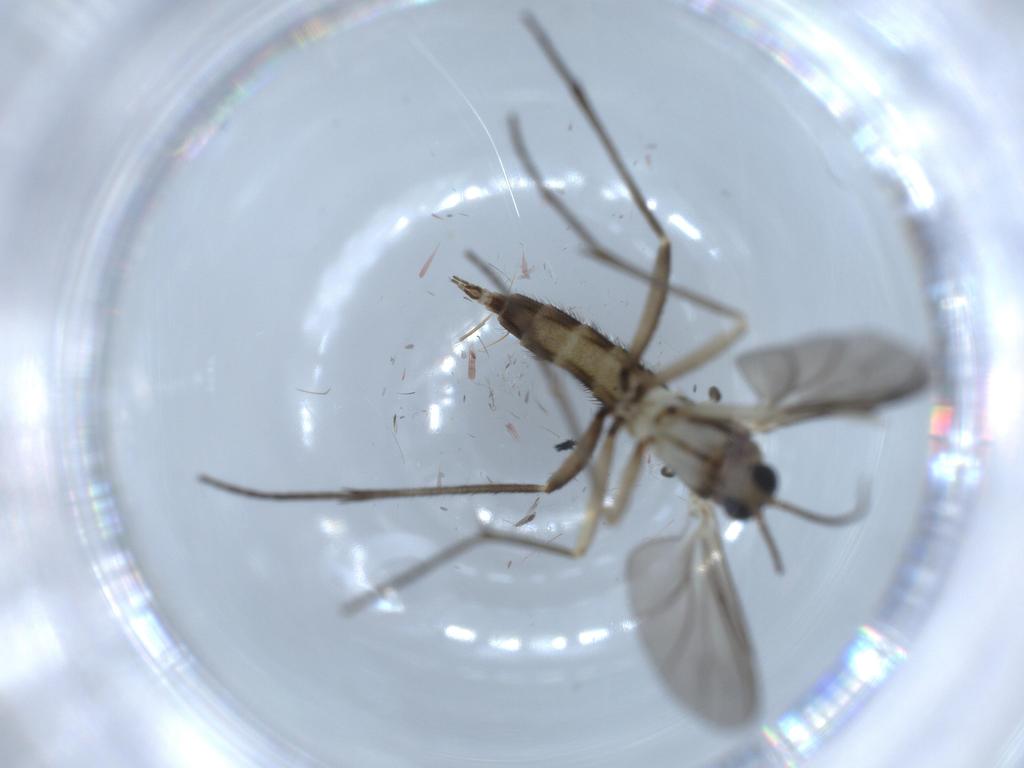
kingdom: Animalia
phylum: Arthropoda
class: Insecta
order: Diptera
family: Sciaridae
